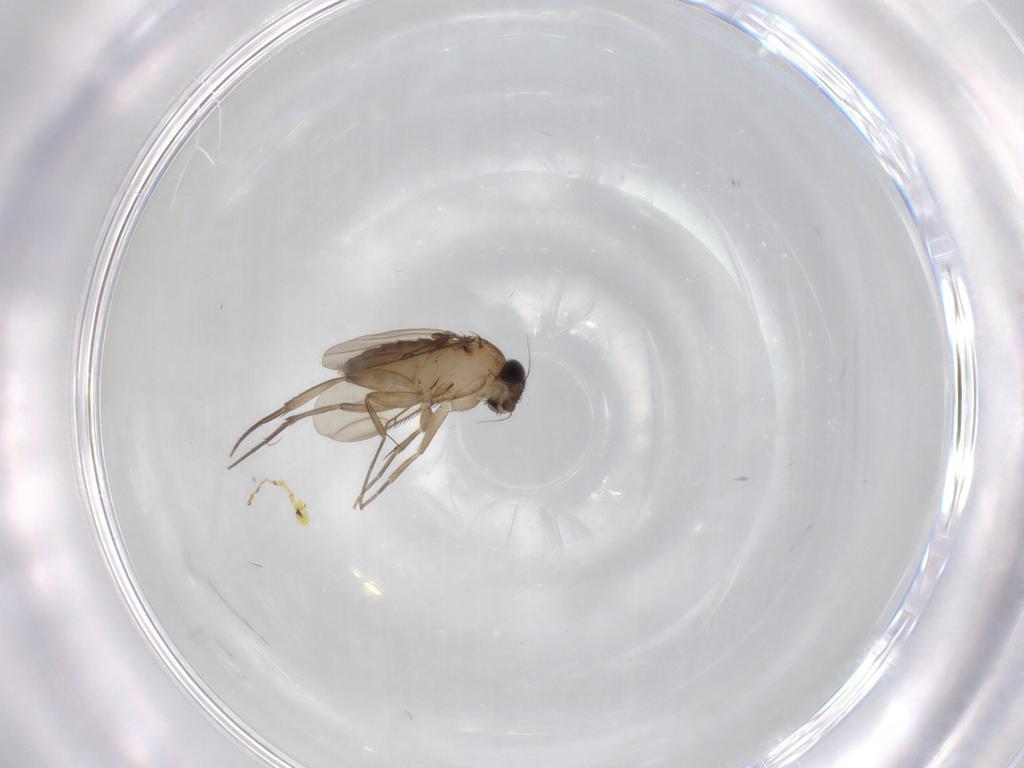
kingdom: Animalia
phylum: Arthropoda
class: Insecta
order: Diptera
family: Phoridae
